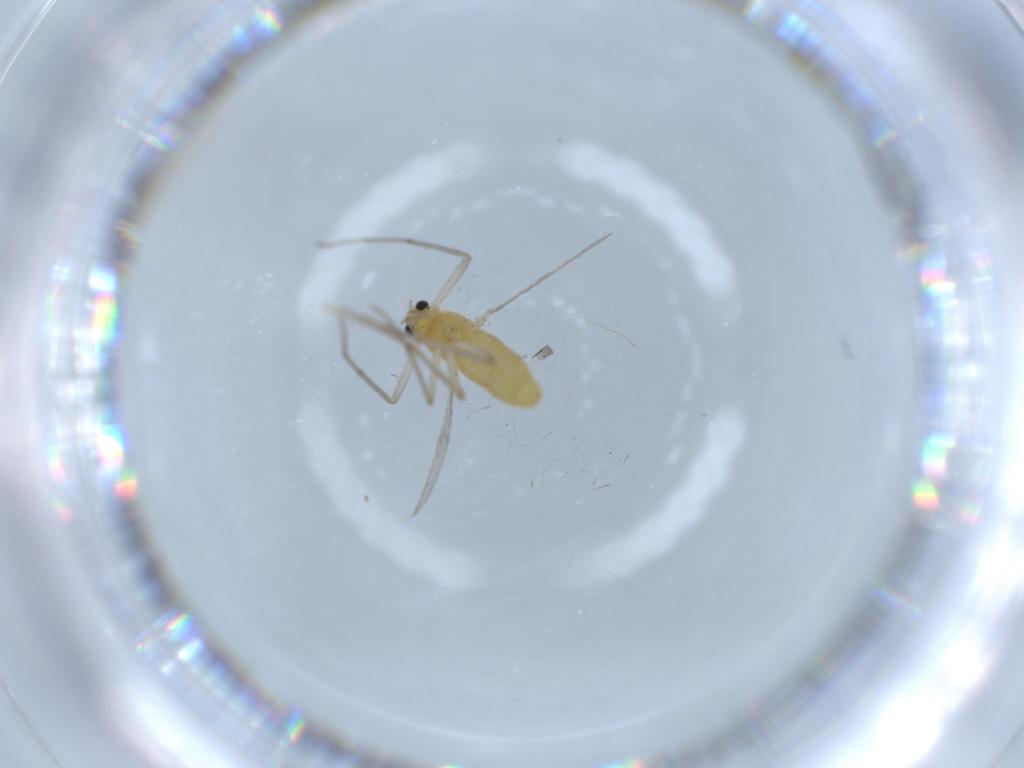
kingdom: Animalia
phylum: Arthropoda
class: Insecta
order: Diptera
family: Chironomidae
